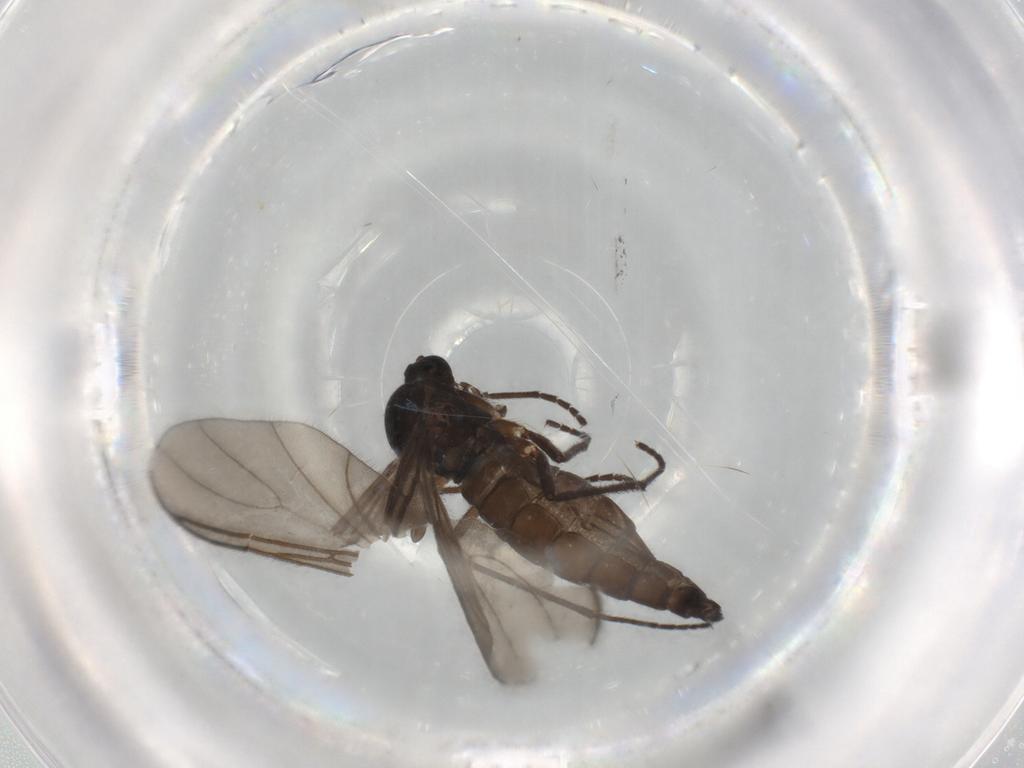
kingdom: Animalia
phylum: Arthropoda
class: Insecta
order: Diptera
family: Sciaridae
